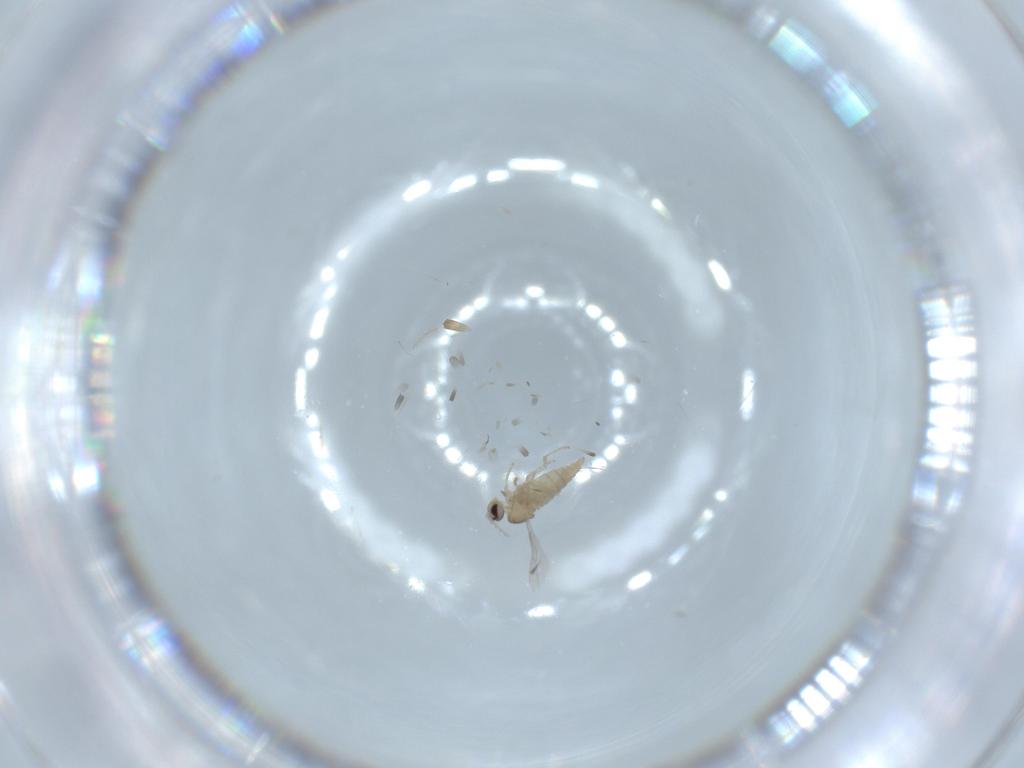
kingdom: Animalia
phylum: Arthropoda
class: Insecta
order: Diptera
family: Cecidomyiidae
